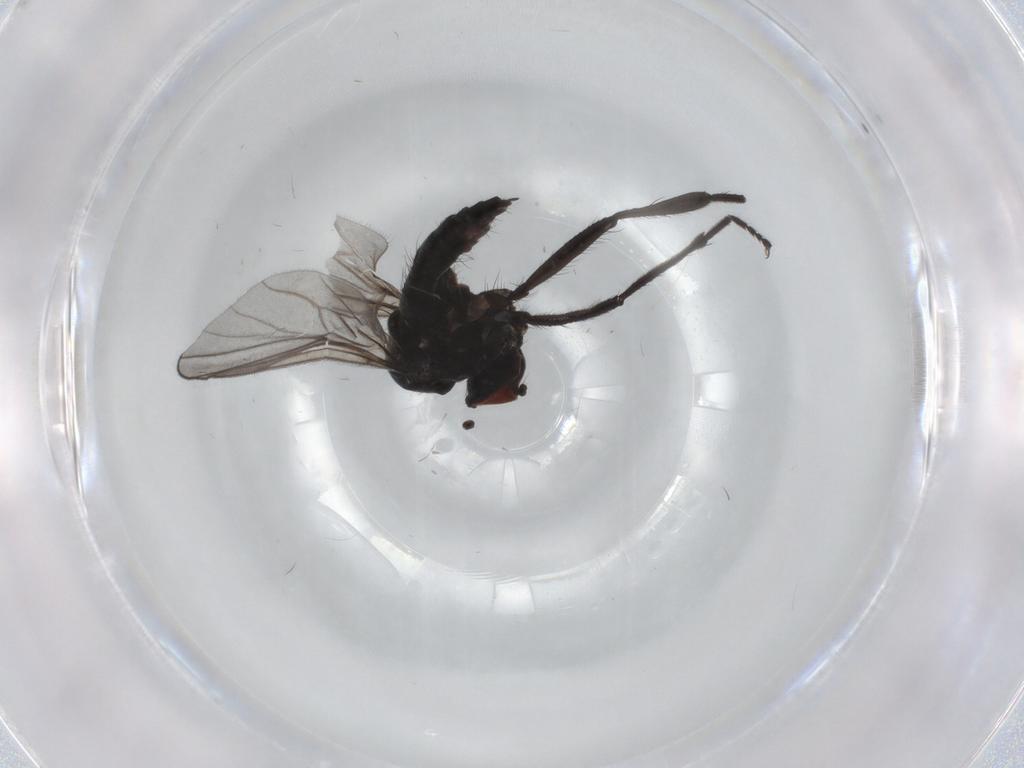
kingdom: Animalia
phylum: Arthropoda
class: Insecta
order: Diptera
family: Hybotidae
